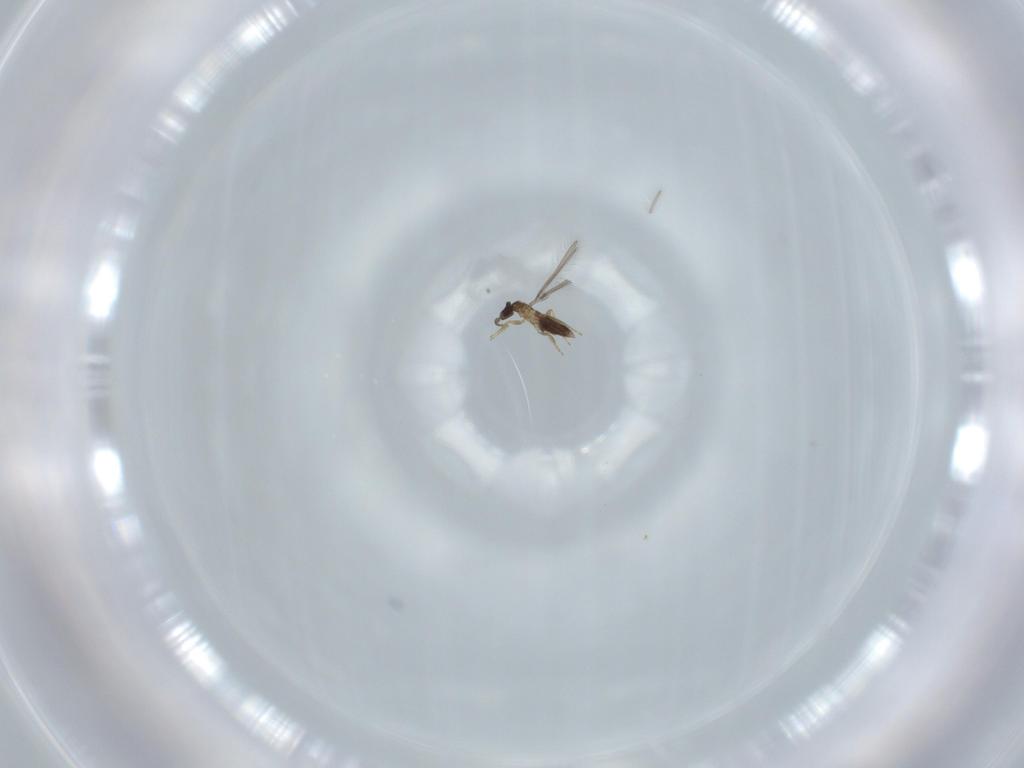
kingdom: Animalia
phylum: Arthropoda
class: Insecta
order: Hymenoptera
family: Mymaridae
